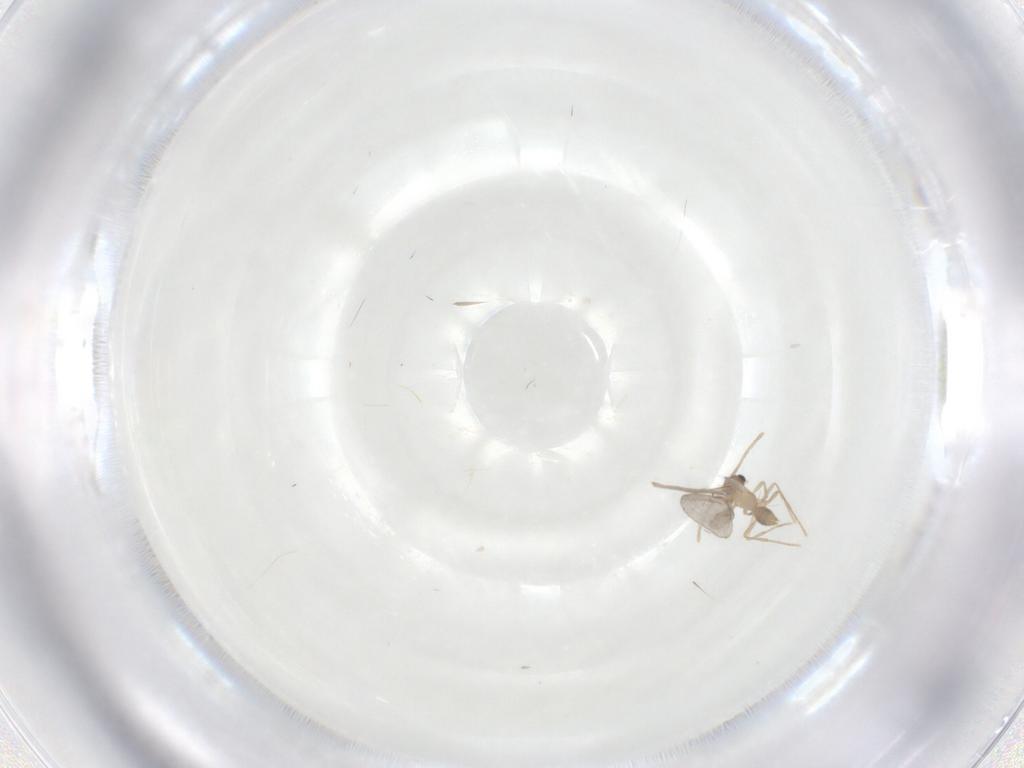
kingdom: Animalia
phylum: Arthropoda
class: Insecta
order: Hymenoptera
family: Formicidae
